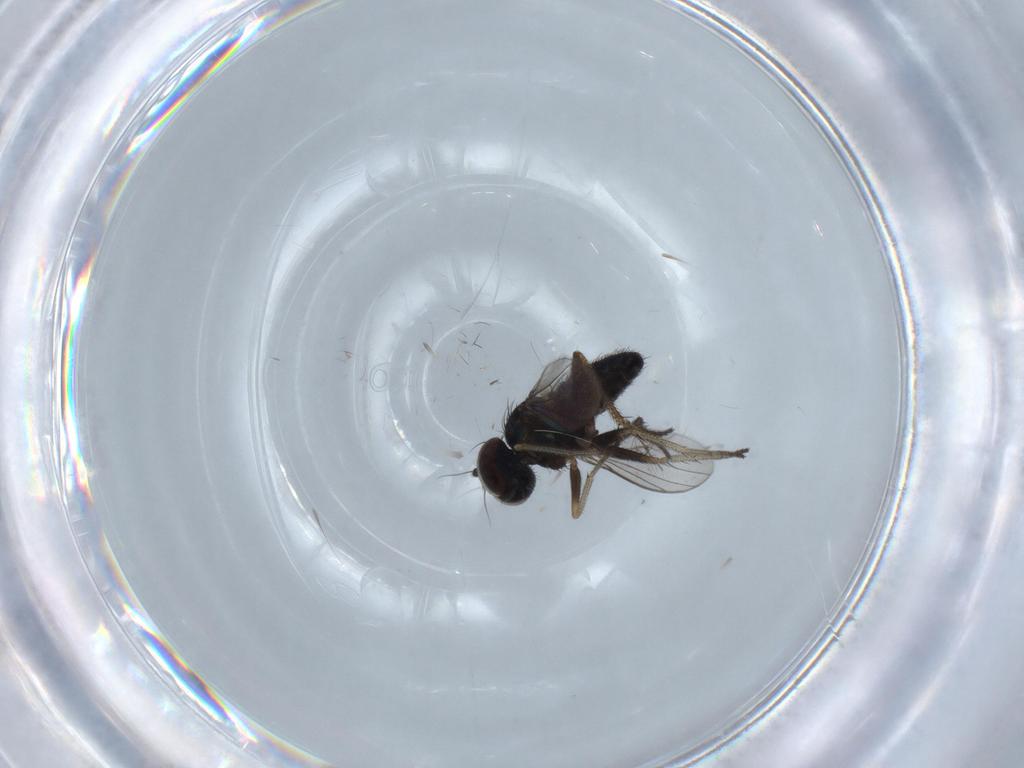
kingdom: Animalia
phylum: Arthropoda
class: Insecta
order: Diptera
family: Dolichopodidae
